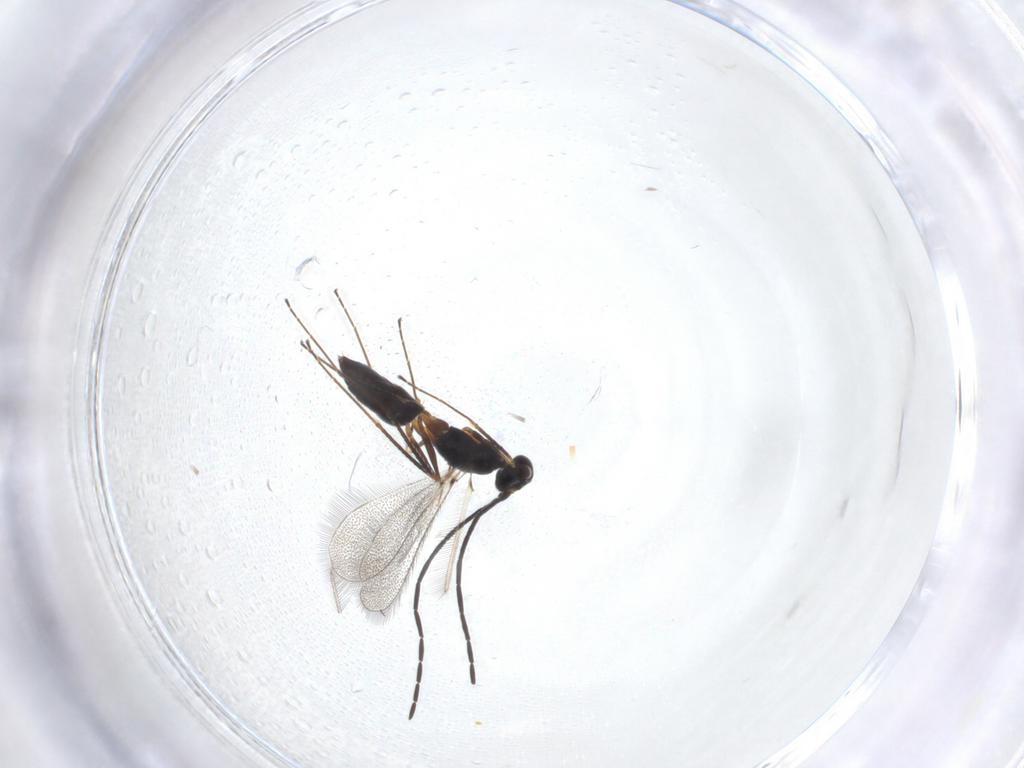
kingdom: Animalia
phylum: Arthropoda
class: Insecta
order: Hymenoptera
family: Mymaridae
